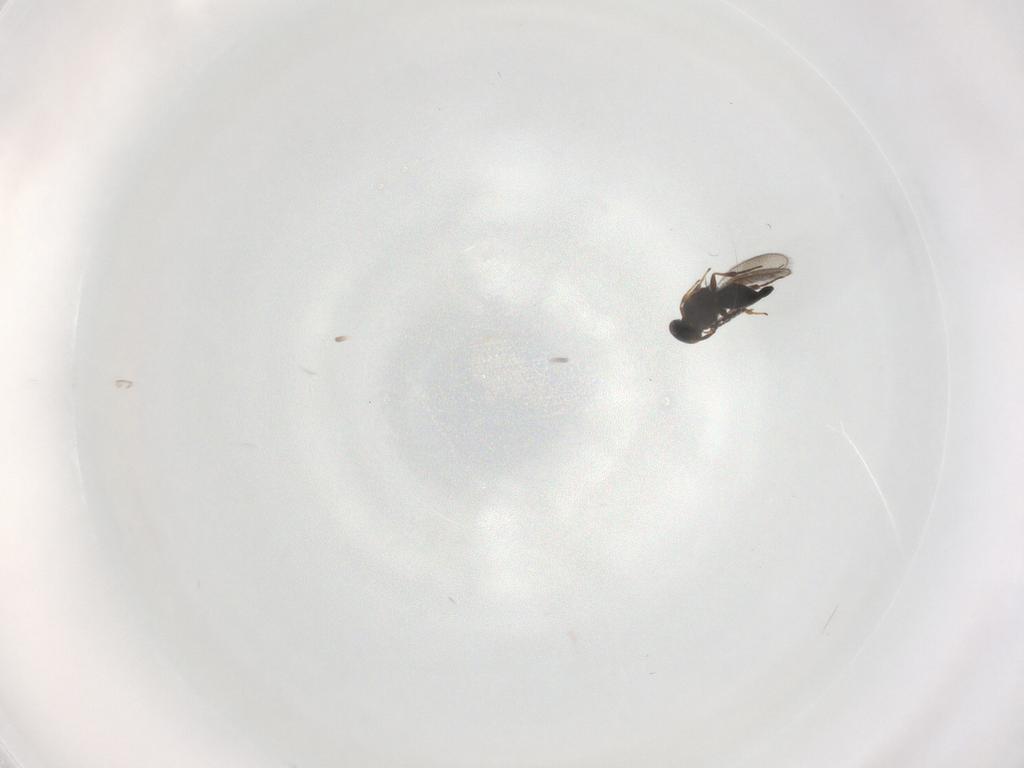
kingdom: Animalia
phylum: Arthropoda
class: Insecta
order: Hymenoptera
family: Platygastridae
